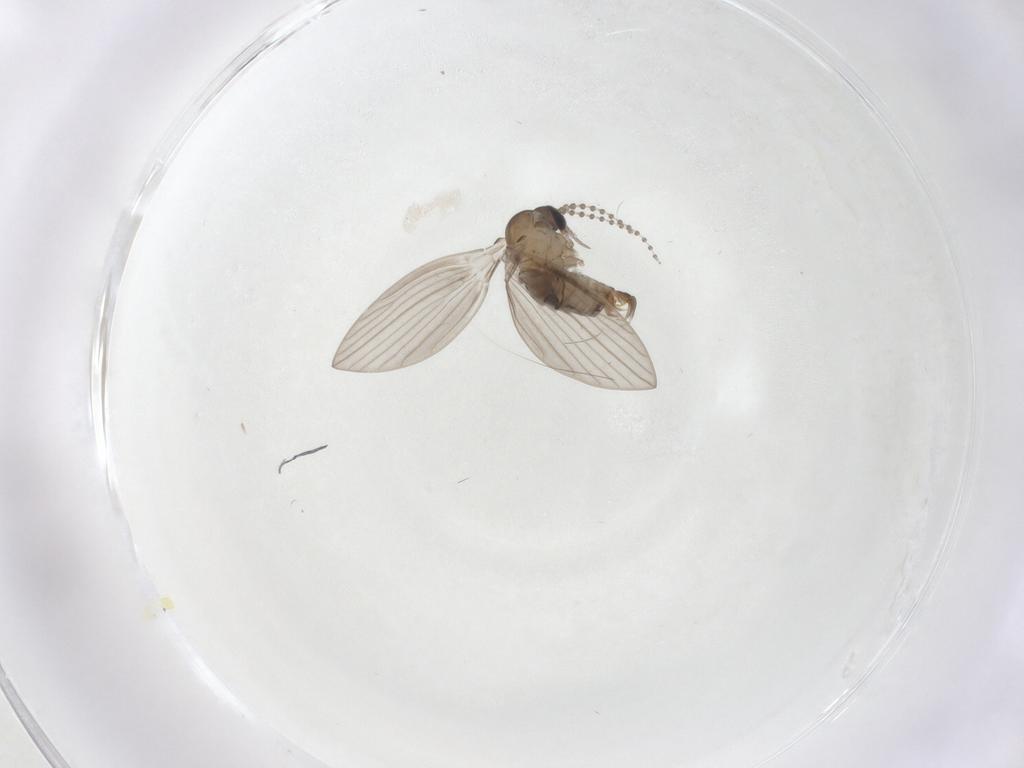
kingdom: Animalia
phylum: Arthropoda
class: Insecta
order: Diptera
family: Psychodidae
